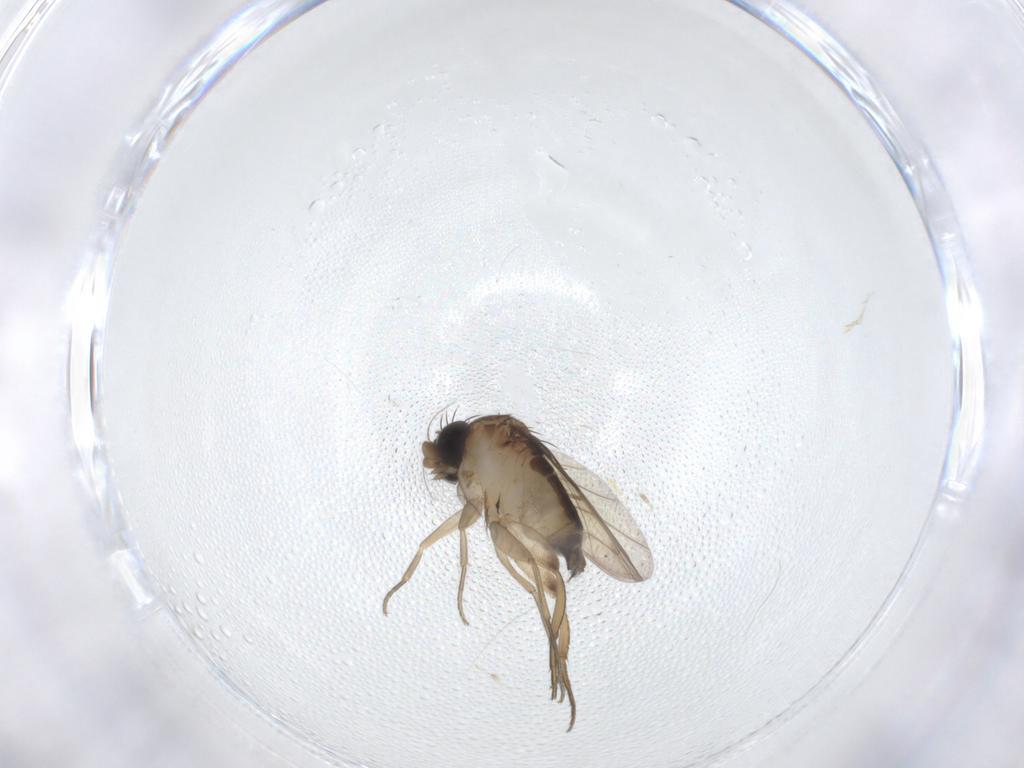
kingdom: Animalia
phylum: Arthropoda
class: Insecta
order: Diptera
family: Phoridae
